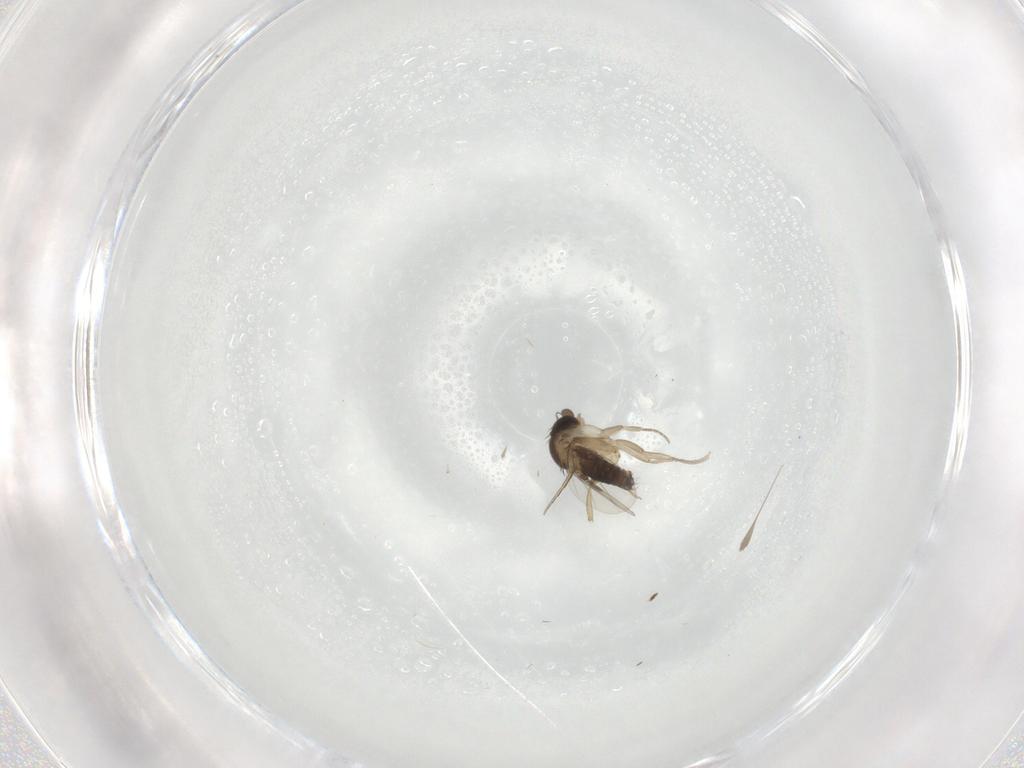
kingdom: Animalia
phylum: Arthropoda
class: Insecta
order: Diptera
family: Phoridae
